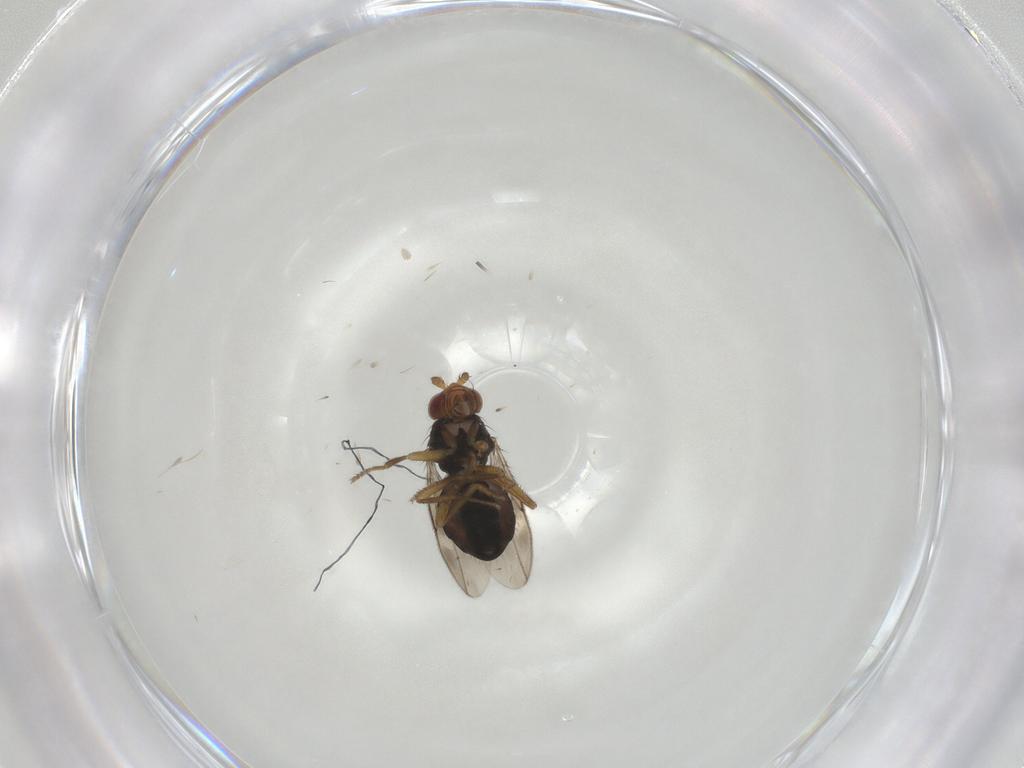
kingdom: Animalia
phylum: Arthropoda
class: Insecta
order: Diptera
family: Sphaeroceridae
